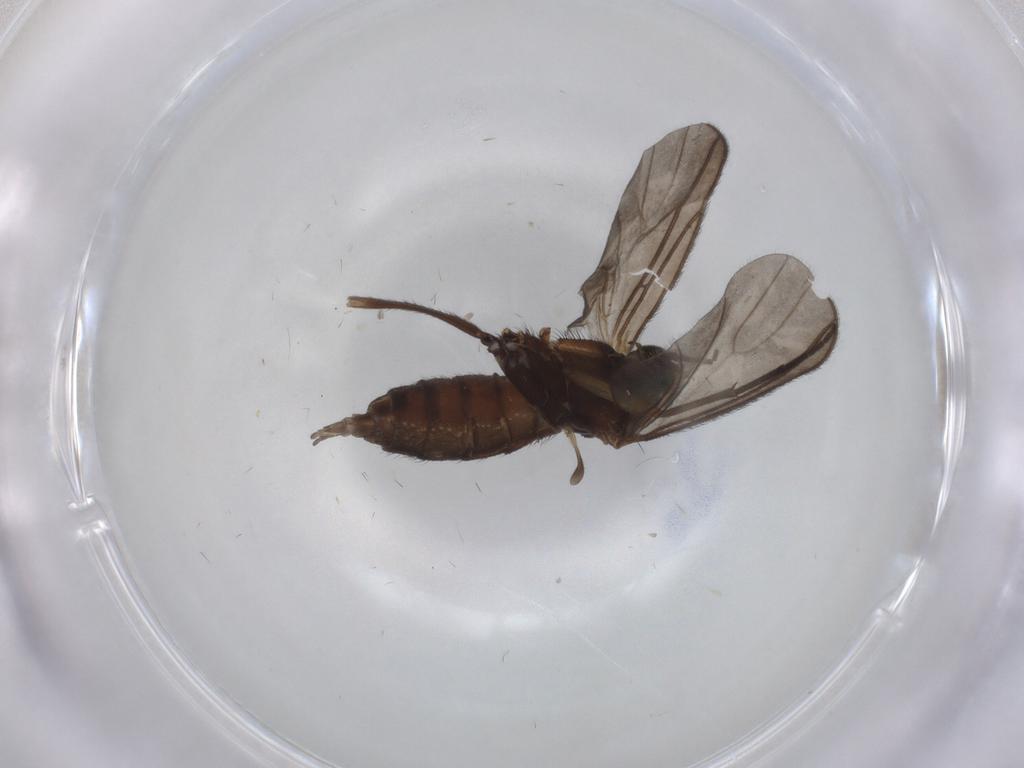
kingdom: Animalia
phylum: Arthropoda
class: Insecta
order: Diptera
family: Sciaridae
